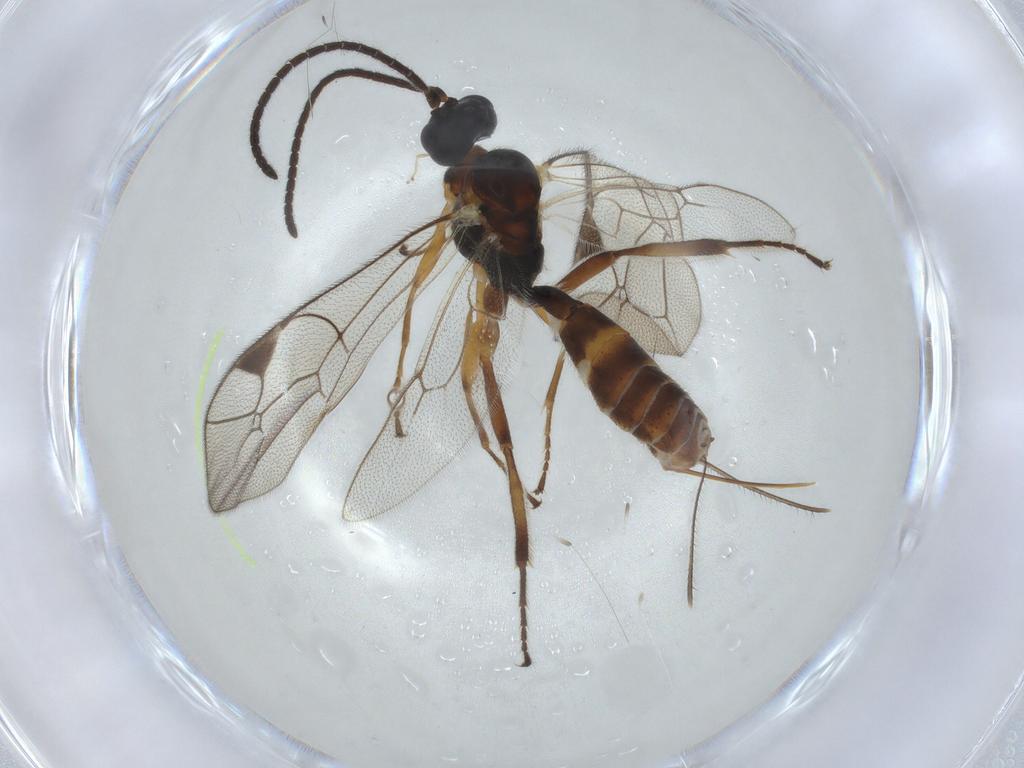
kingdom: Animalia
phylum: Arthropoda
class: Insecta
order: Hymenoptera
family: Ichneumonidae
